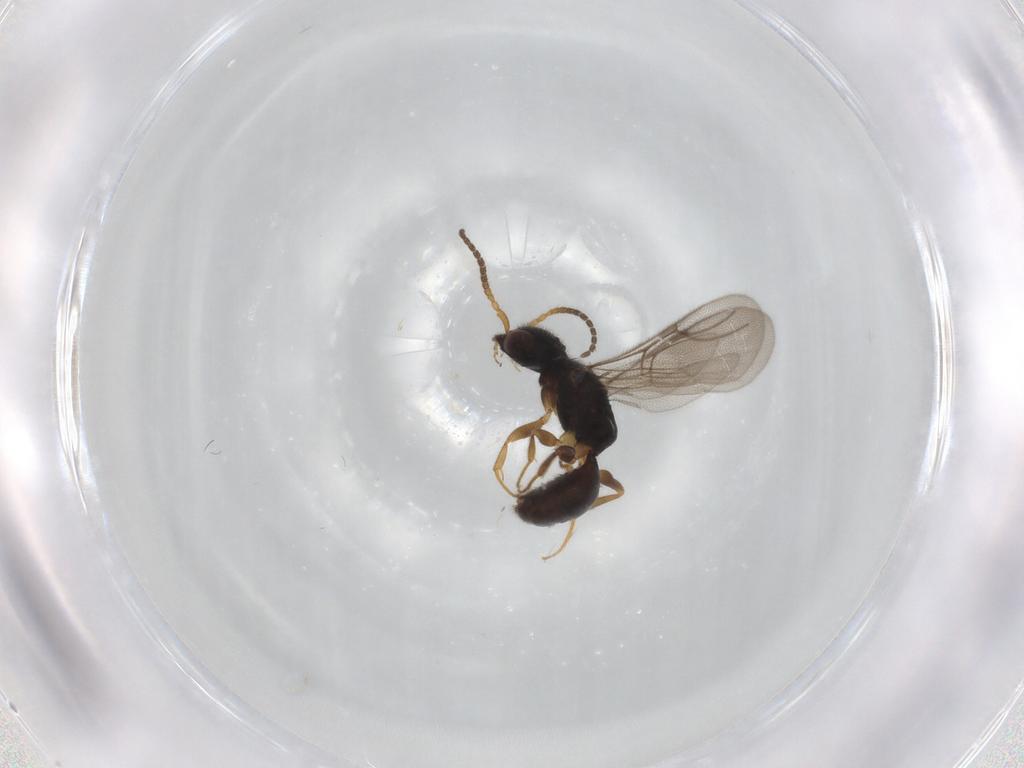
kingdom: Animalia
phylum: Arthropoda
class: Insecta
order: Hymenoptera
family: Bethylidae
